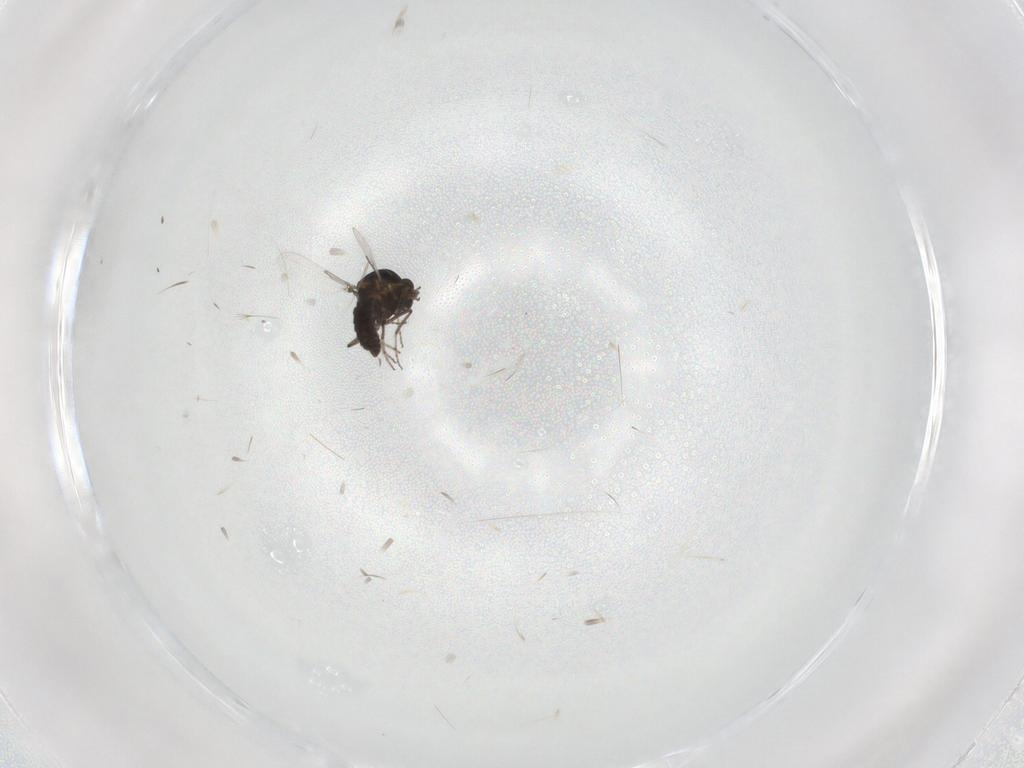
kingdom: Animalia
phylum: Arthropoda
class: Insecta
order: Diptera
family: Ceratopogonidae
